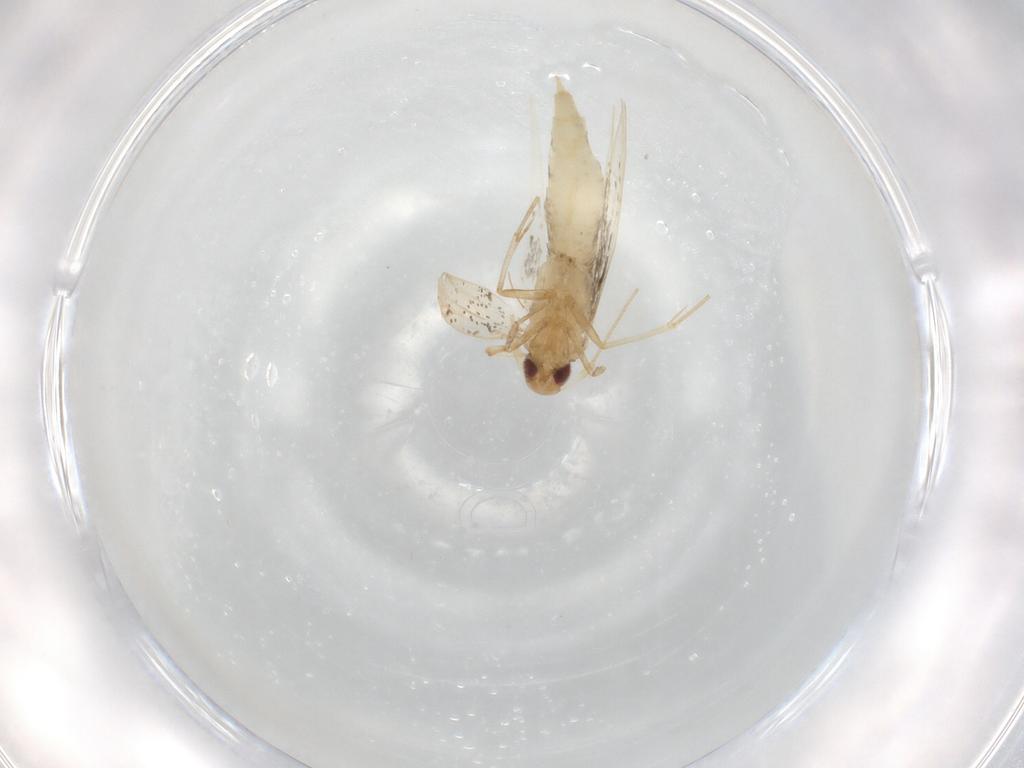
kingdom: Animalia
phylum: Arthropoda
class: Insecta
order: Lepidoptera
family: Cosmopterigidae
